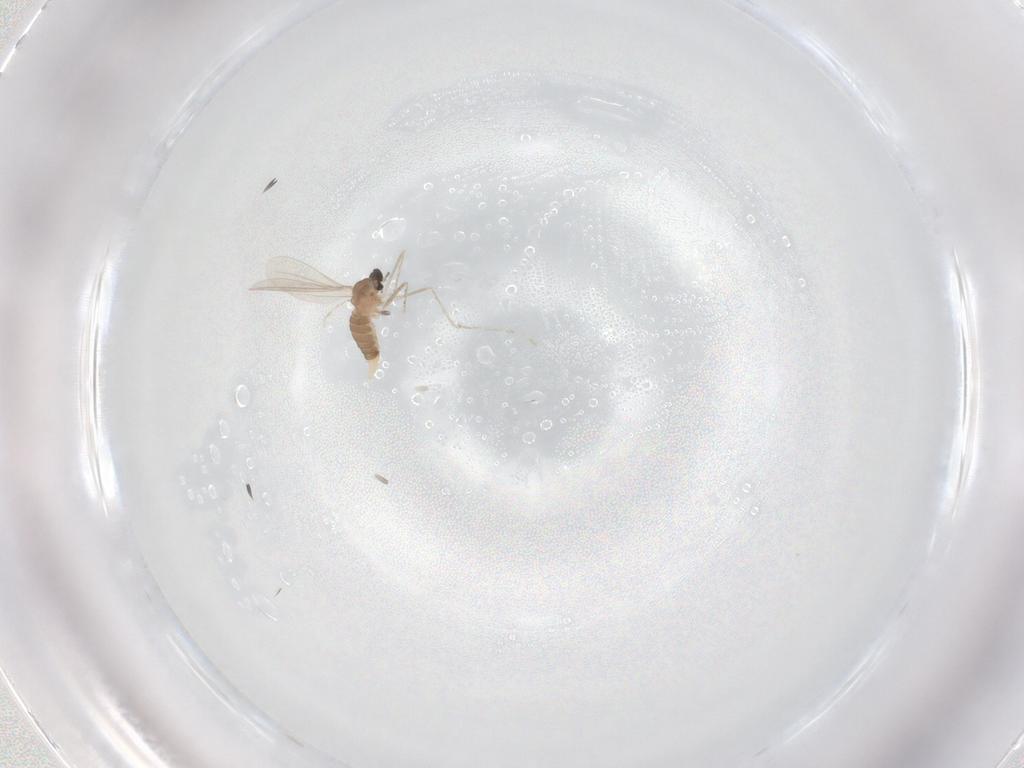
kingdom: Animalia
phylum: Arthropoda
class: Insecta
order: Diptera
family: Cecidomyiidae
